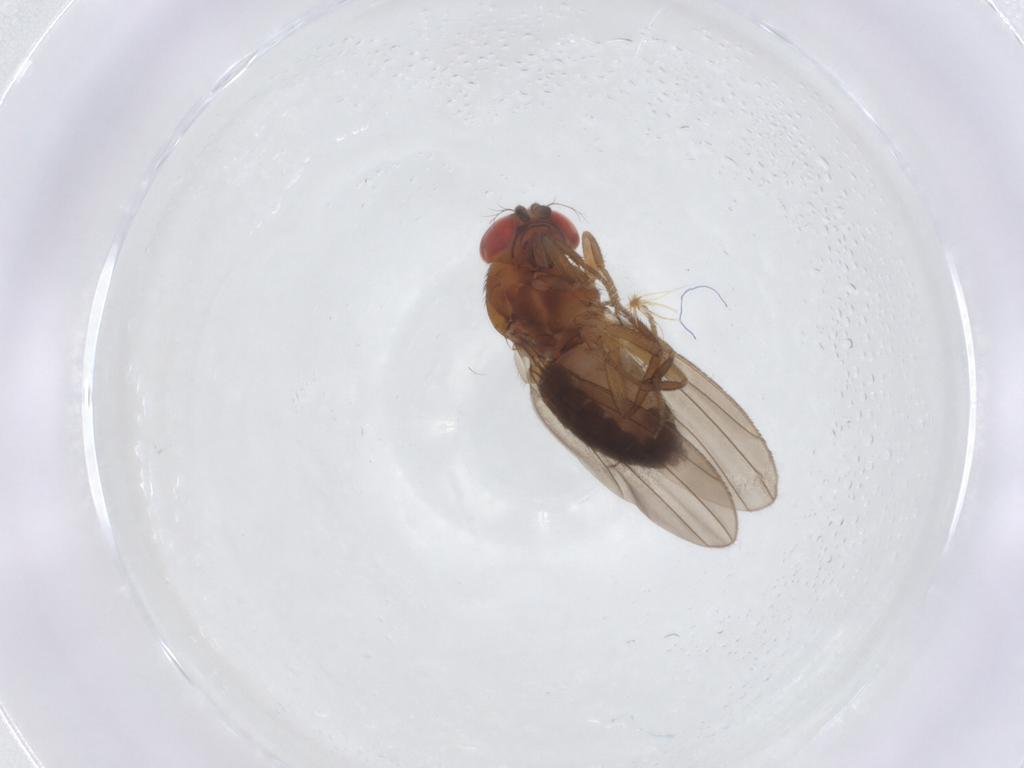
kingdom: Animalia
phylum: Arthropoda
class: Insecta
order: Diptera
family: Drosophilidae
